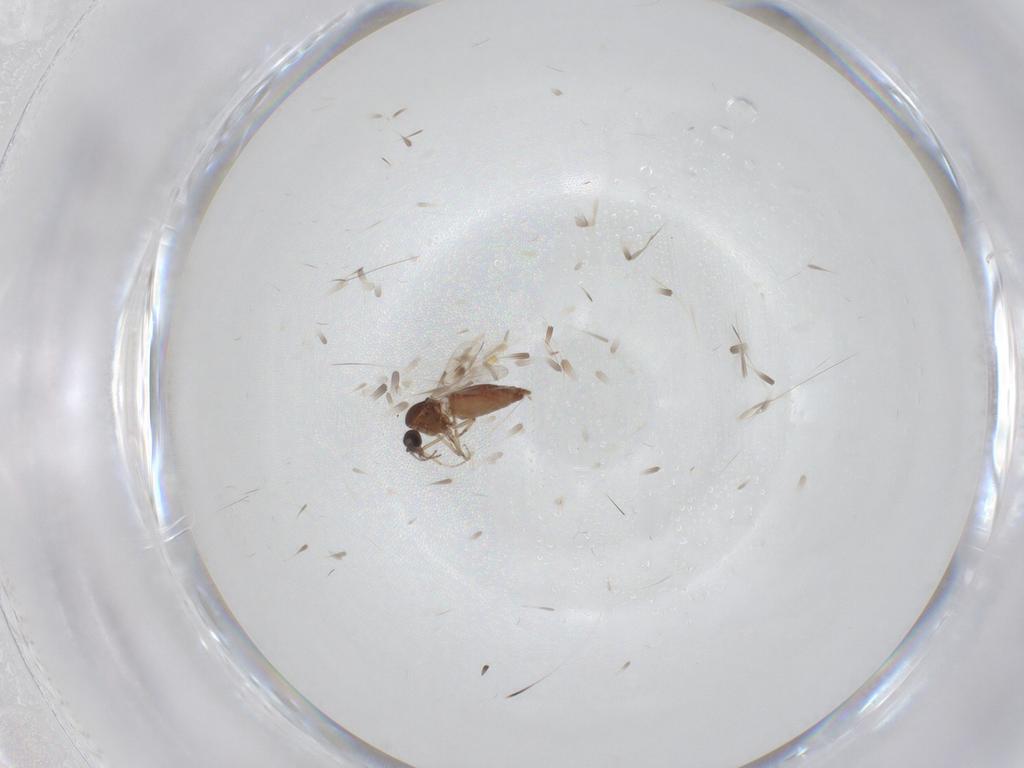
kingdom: Animalia
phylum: Arthropoda
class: Insecta
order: Diptera
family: Ceratopogonidae
